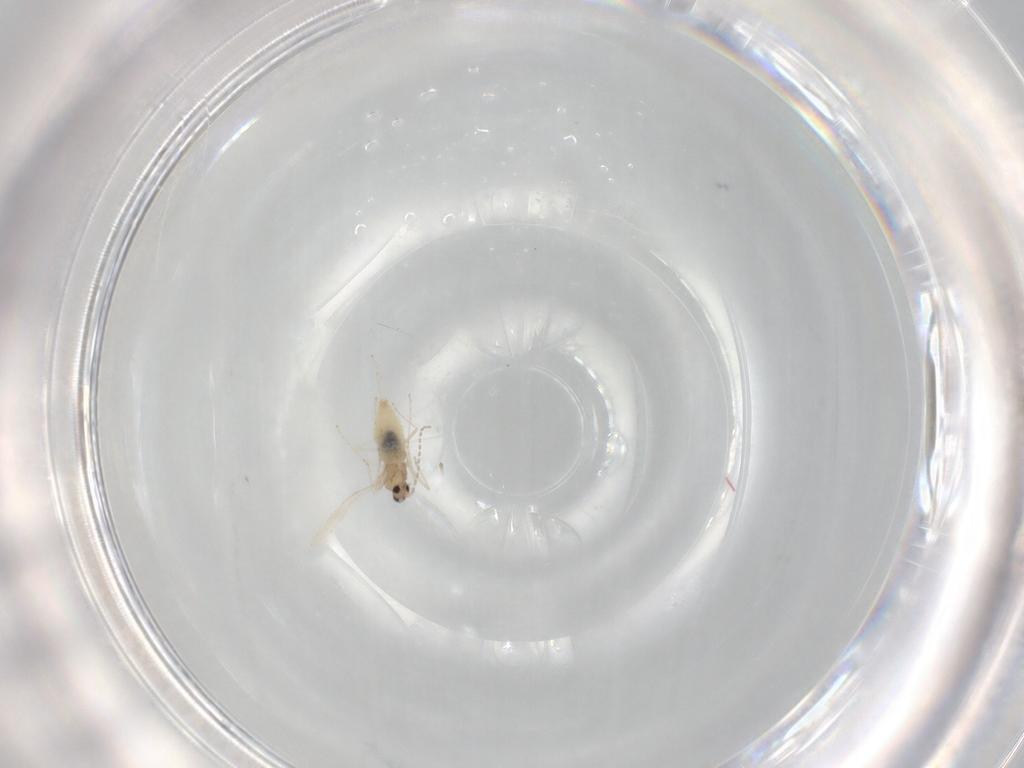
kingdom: Animalia
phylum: Arthropoda
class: Insecta
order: Diptera
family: Cecidomyiidae
